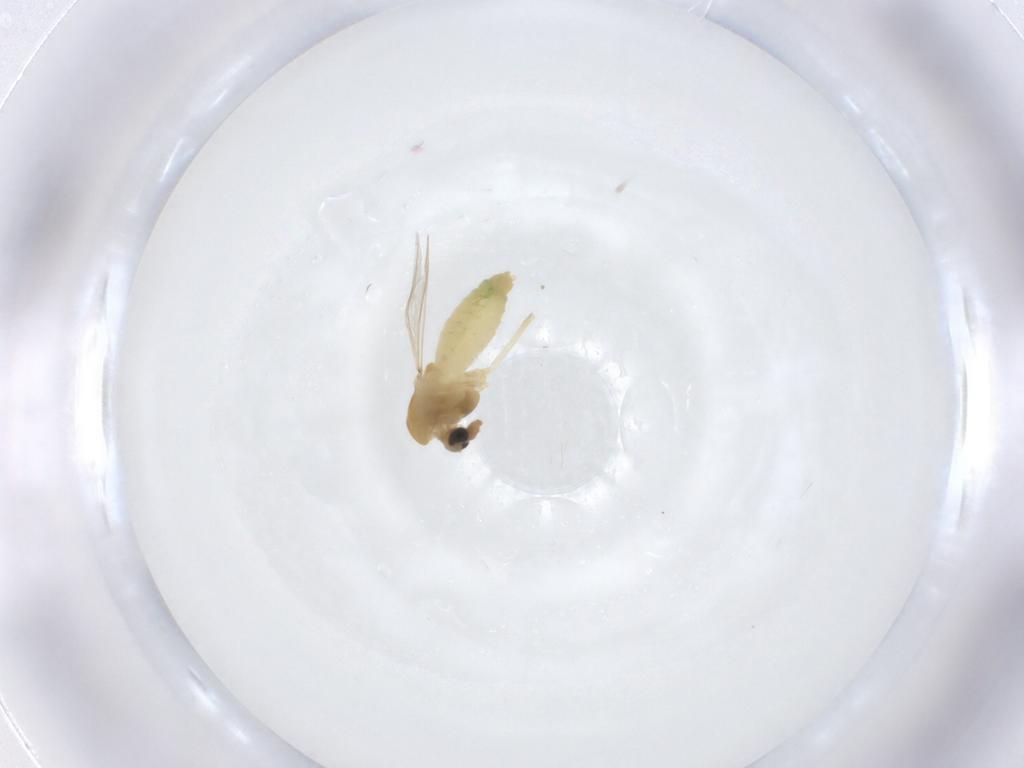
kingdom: Animalia
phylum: Arthropoda
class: Insecta
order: Diptera
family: Chironomidae
